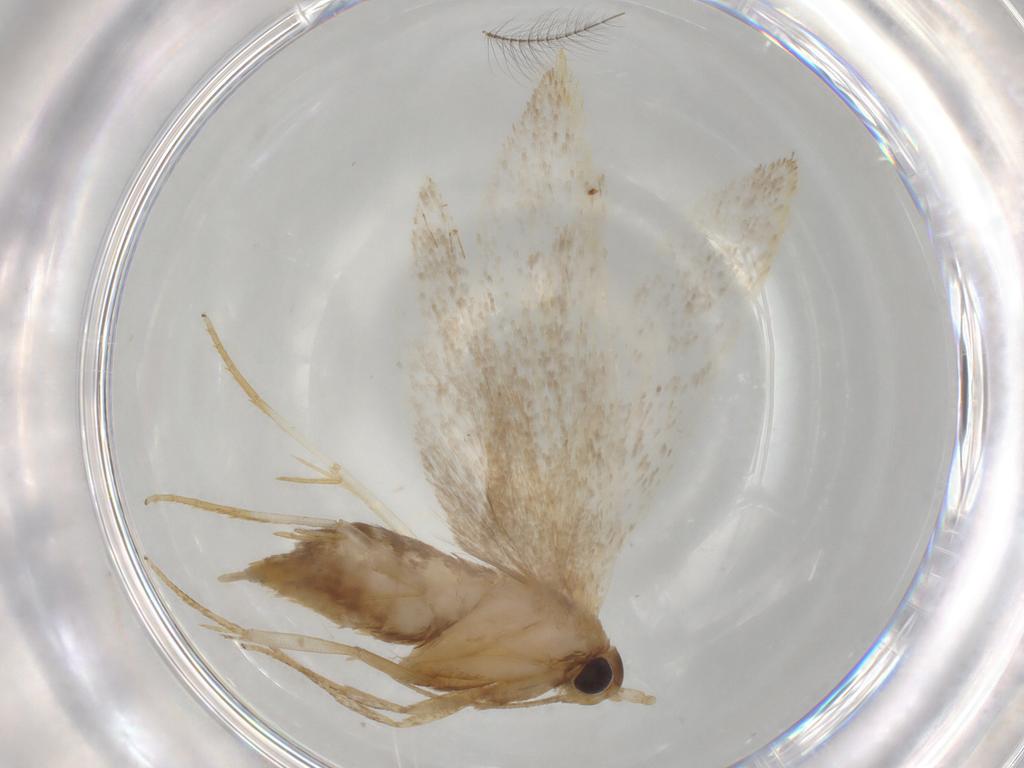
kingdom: Animalia
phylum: Arthropoda
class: Insecta
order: Lepidoptera
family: Lecithoceridae
